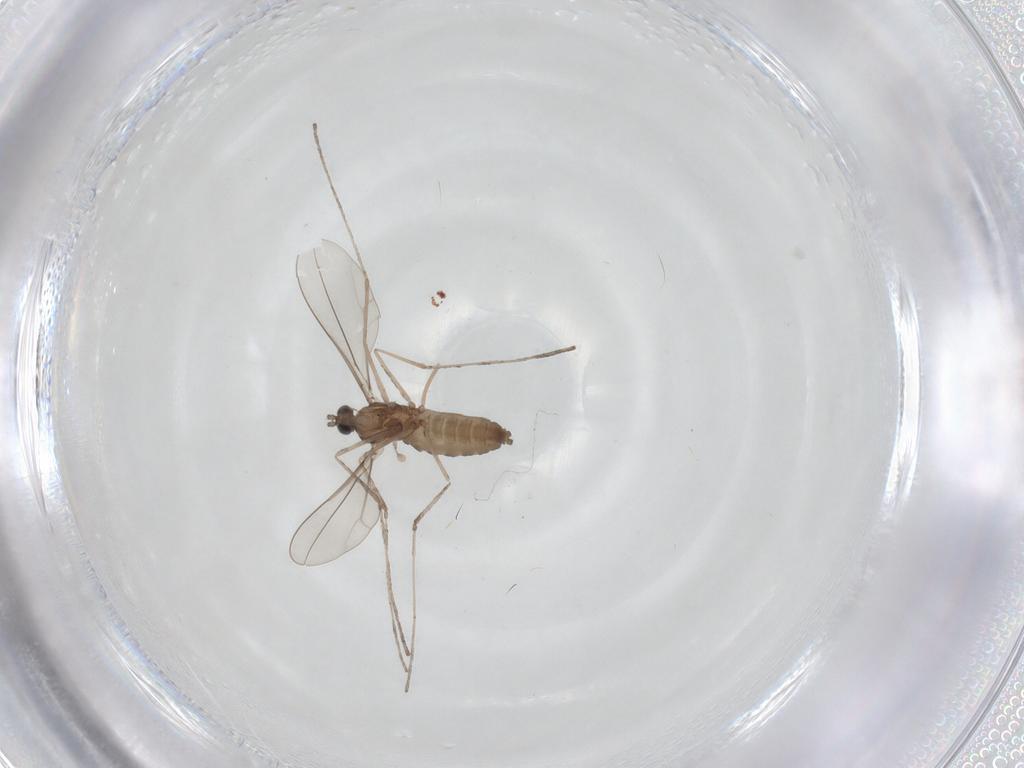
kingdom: Animalia
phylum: Arthropoda
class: Insecta
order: Diptera
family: Cecidomyiidae
